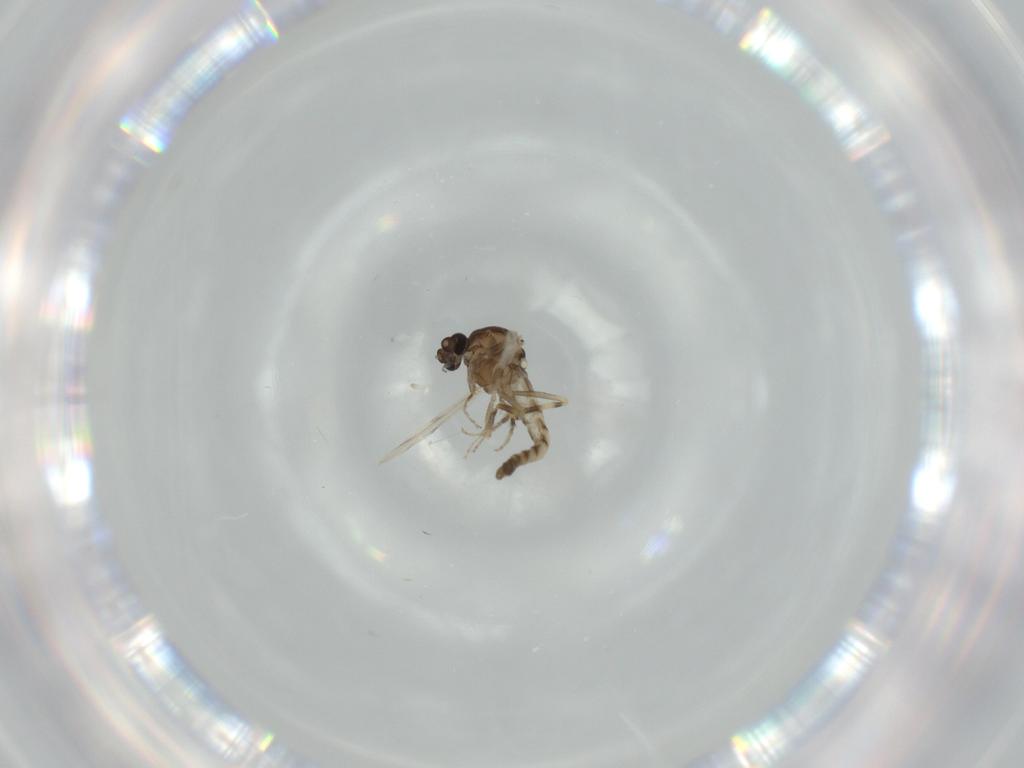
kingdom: Animalia
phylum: Arthropoda
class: Insecta
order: Diptera
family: Ceratopogonidae
